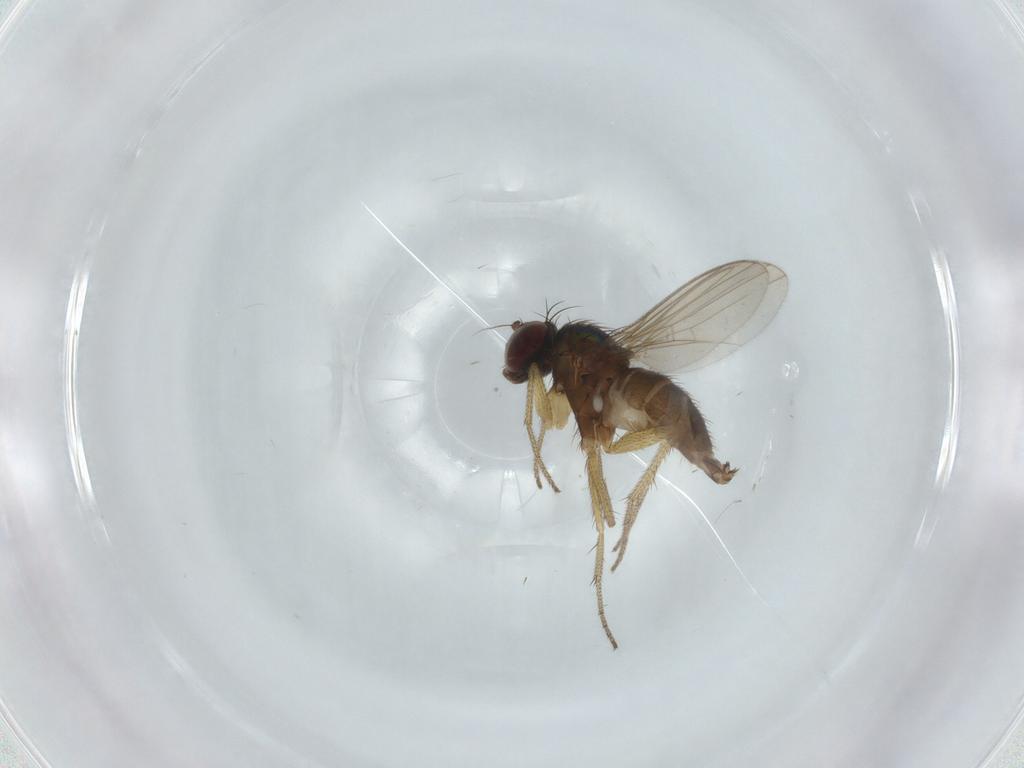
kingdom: Animalia
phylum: Arthropoda
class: Insecta
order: Diptera
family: Dolichopodidae
